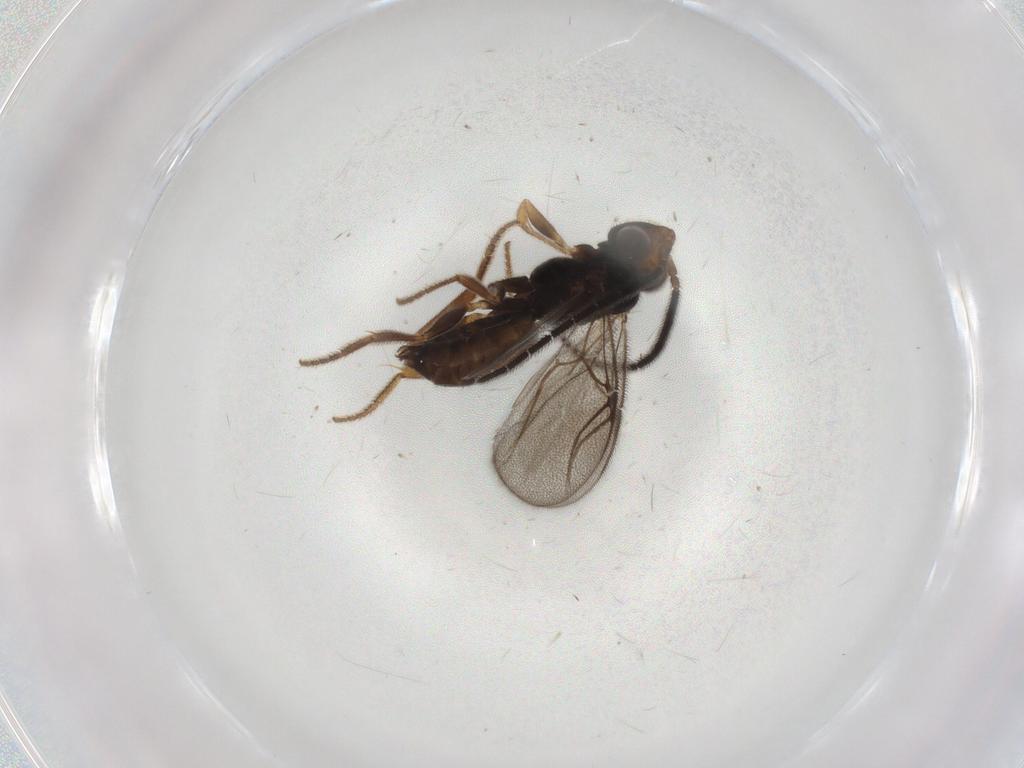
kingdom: Animalia
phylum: Arthropoda
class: Insecta
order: Hymenoptera
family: Dryinidae
